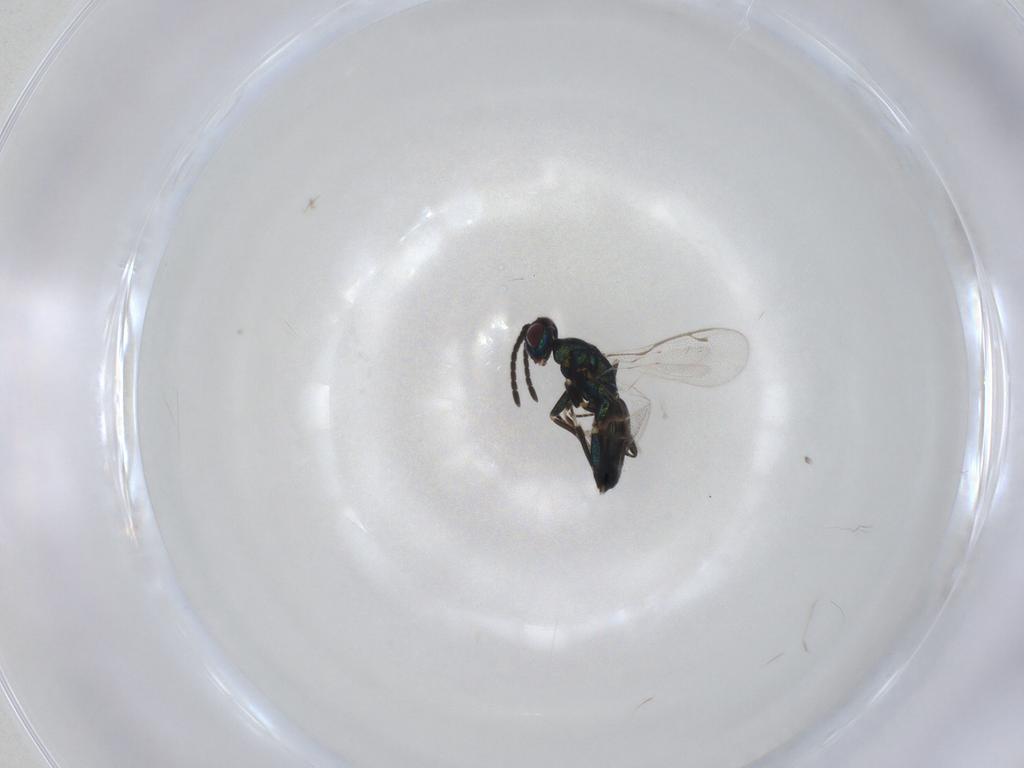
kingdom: Animalia
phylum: Arthropoda
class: Insecta
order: Hymenoptera
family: Eupelmidae
